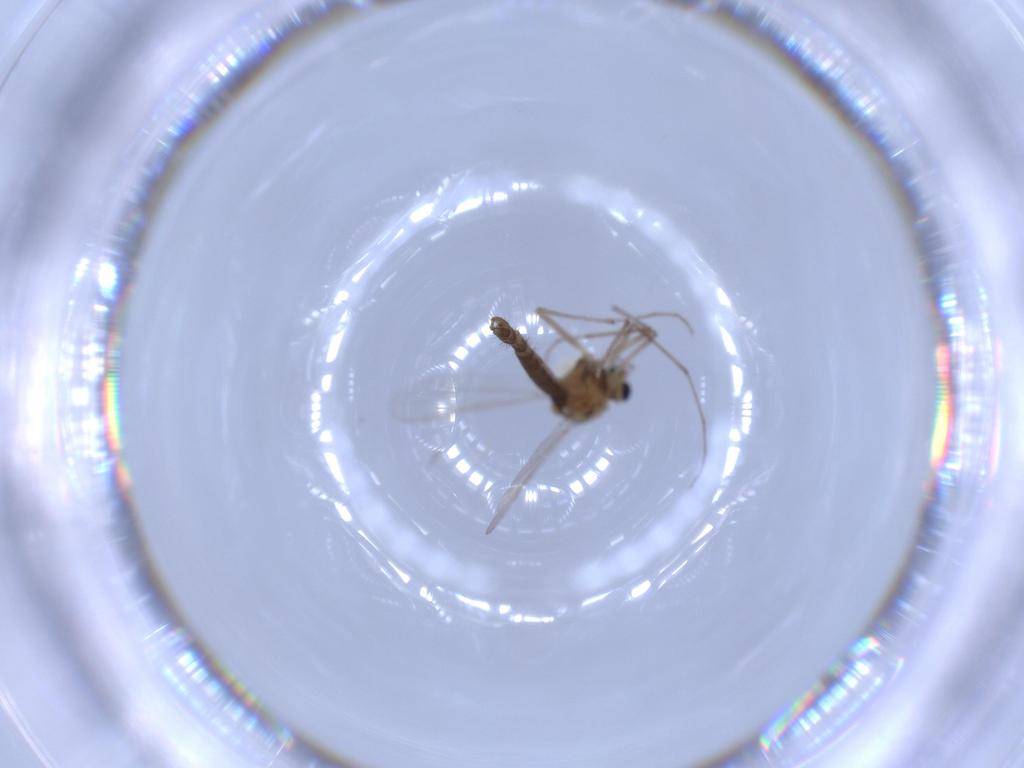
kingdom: Animalia
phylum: Arthropoda
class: Insecta
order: Diptera
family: Chironomidae
